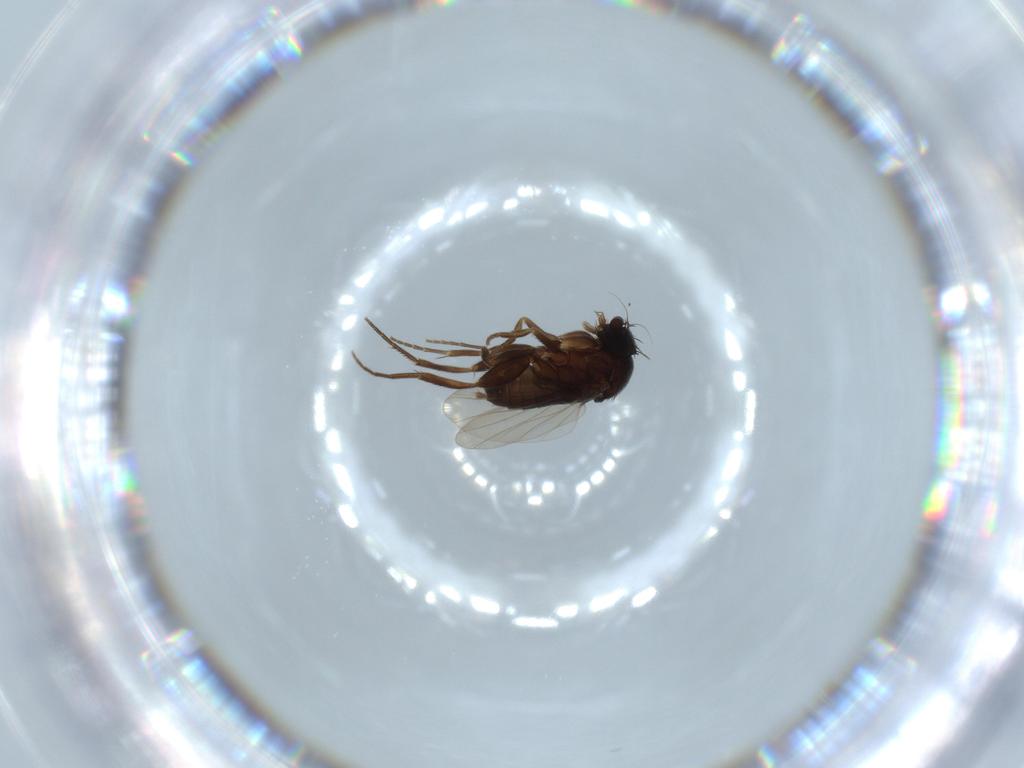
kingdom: Animalia
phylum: Arthropoda
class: Insecta
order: Diptera
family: Phoridae
